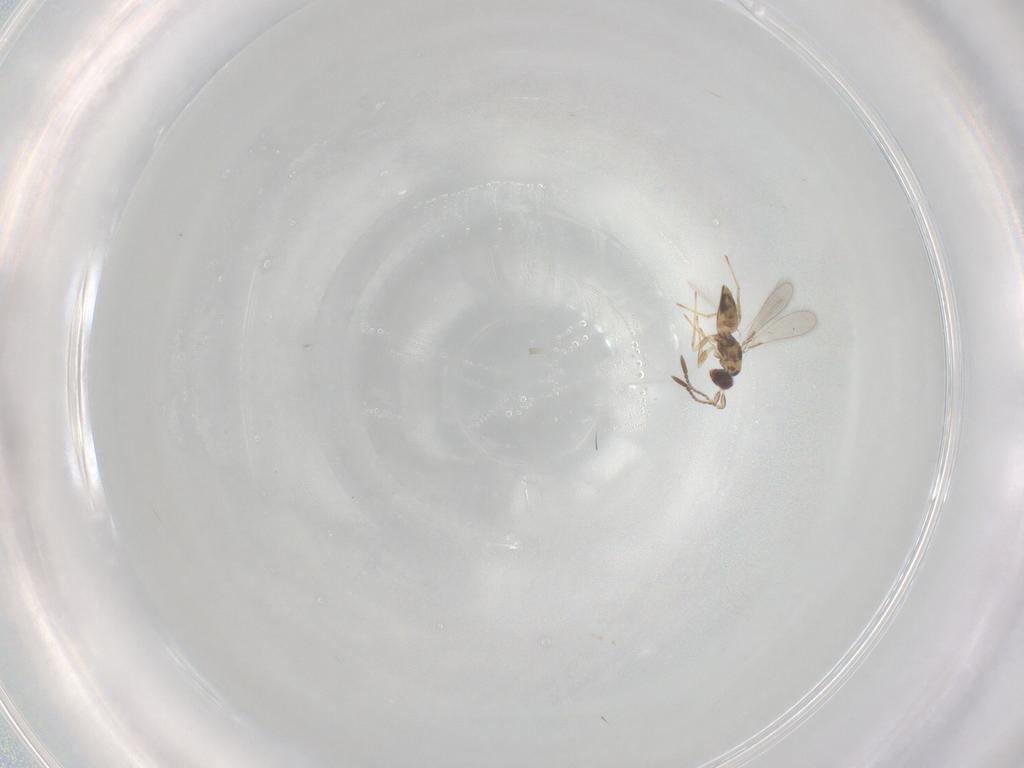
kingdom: Animalia
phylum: Arthropoda
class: Insecta
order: Hymenoptera
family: Mymaridae
